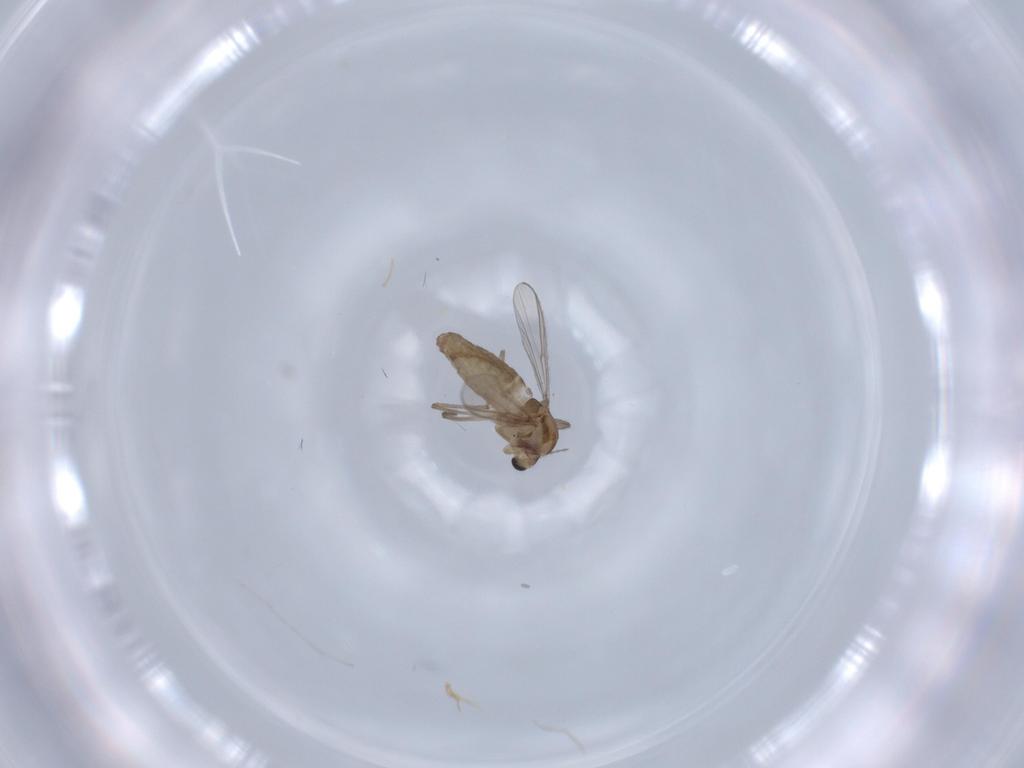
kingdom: Animalia
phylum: Arthropoda
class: Insecta
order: Diptera
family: Chironomidae
